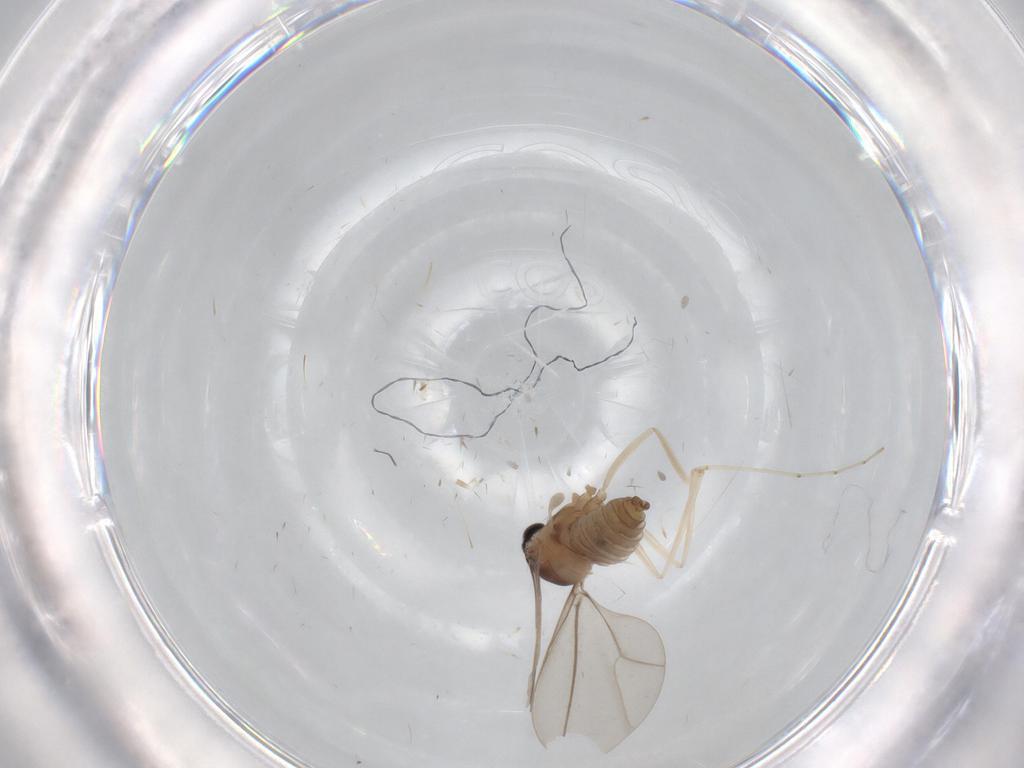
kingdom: Animalia
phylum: Arthropoda
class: Insecta
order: Diptera
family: Cecidomyiidae
